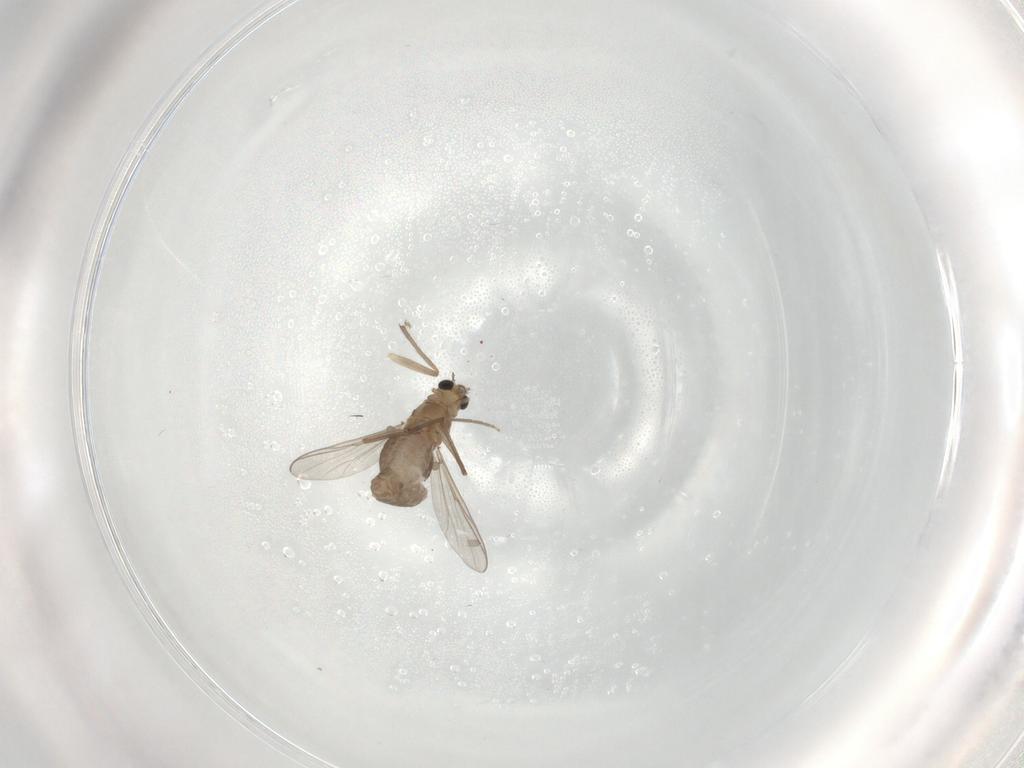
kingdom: Animalia
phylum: Arthropoda
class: Insecta
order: Diptera
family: Chironomidae
